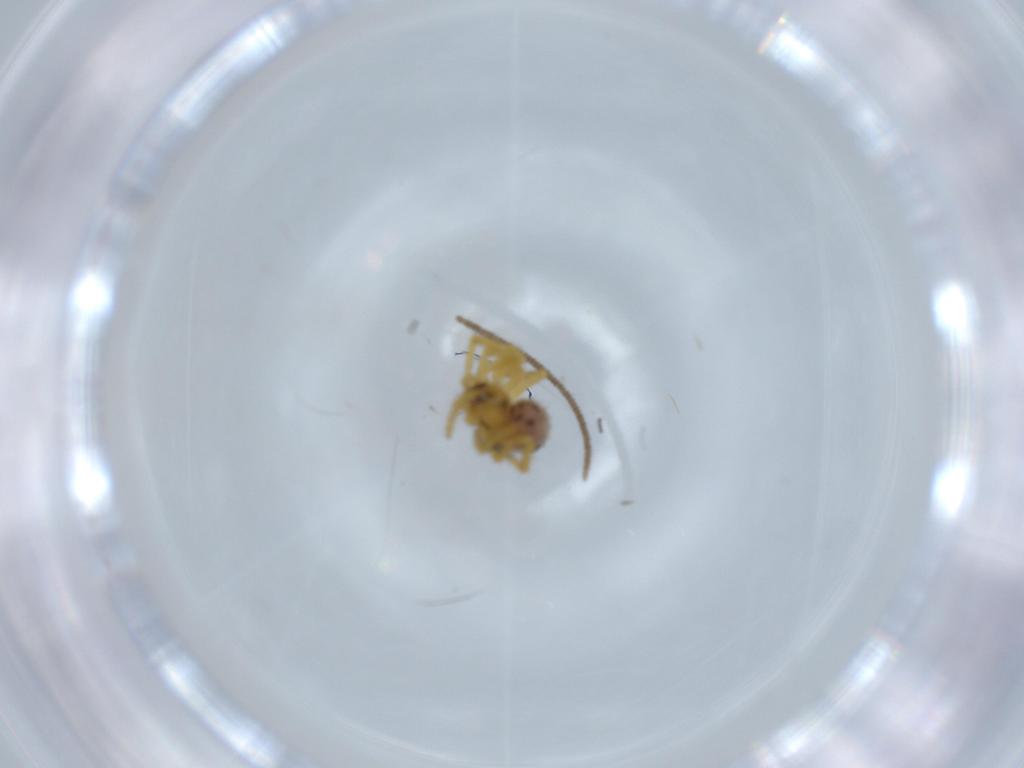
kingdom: Animalia
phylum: Arthropoda
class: Arachnida
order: Araneae
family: Theridiidae
